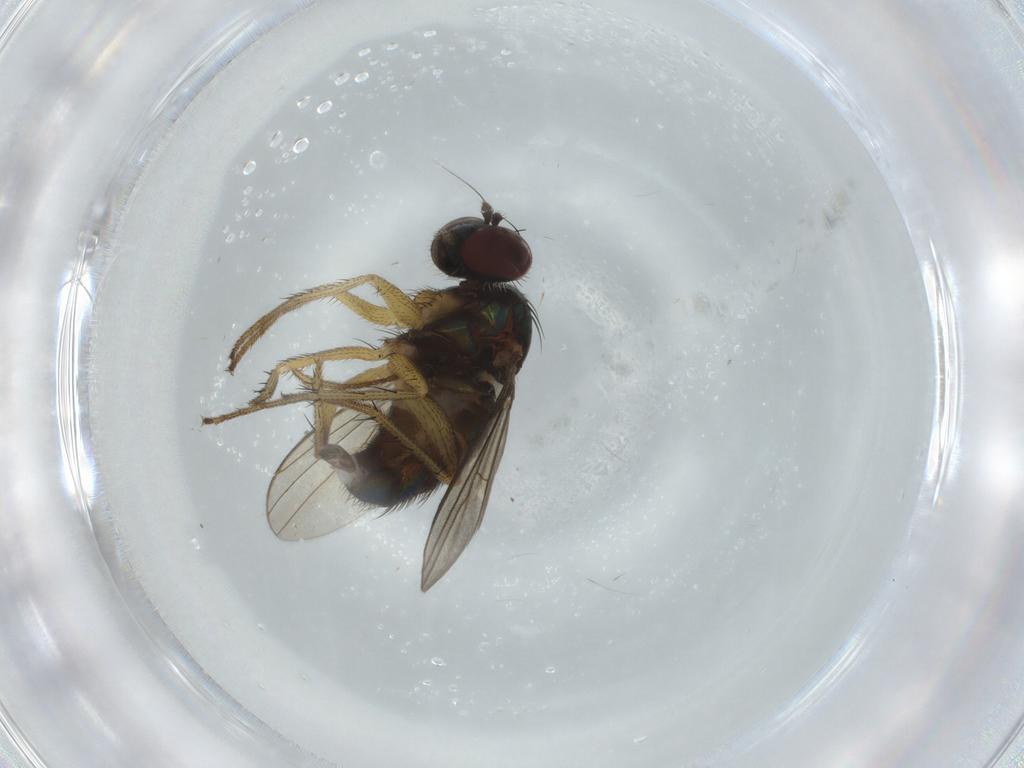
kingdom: Animalia
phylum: Arthropoda
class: Insecta
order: Diptera
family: Dolichopodidae
